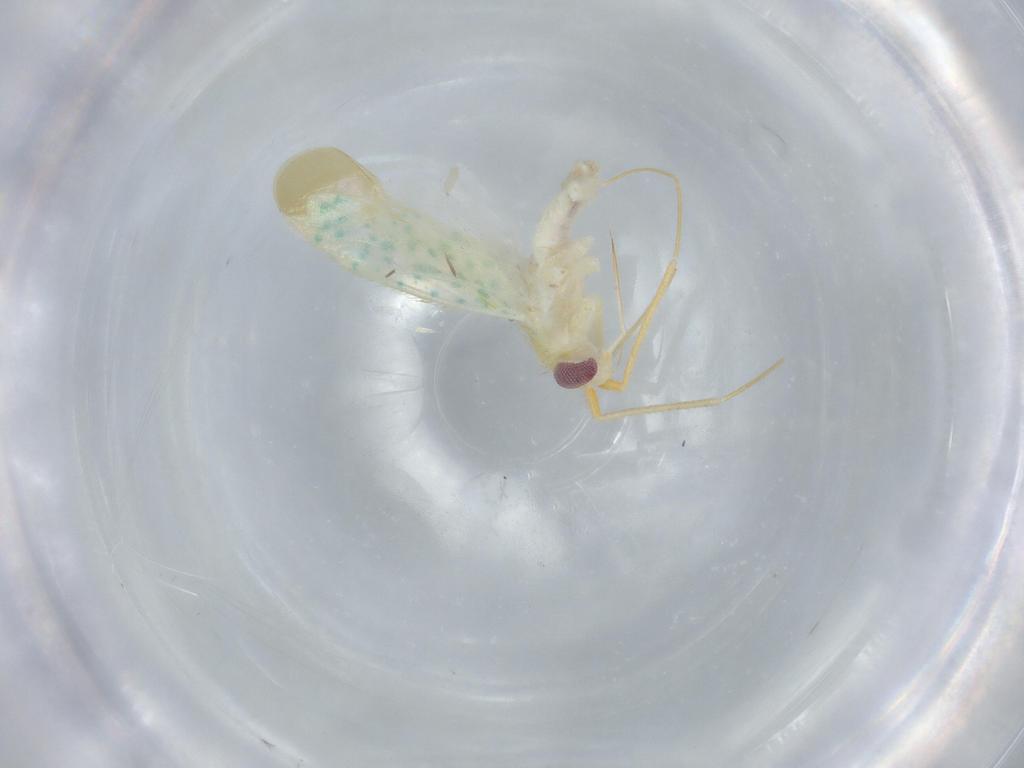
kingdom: Animalia
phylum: Arthropoda
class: Insecta
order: Hemiptera
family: Miridae
